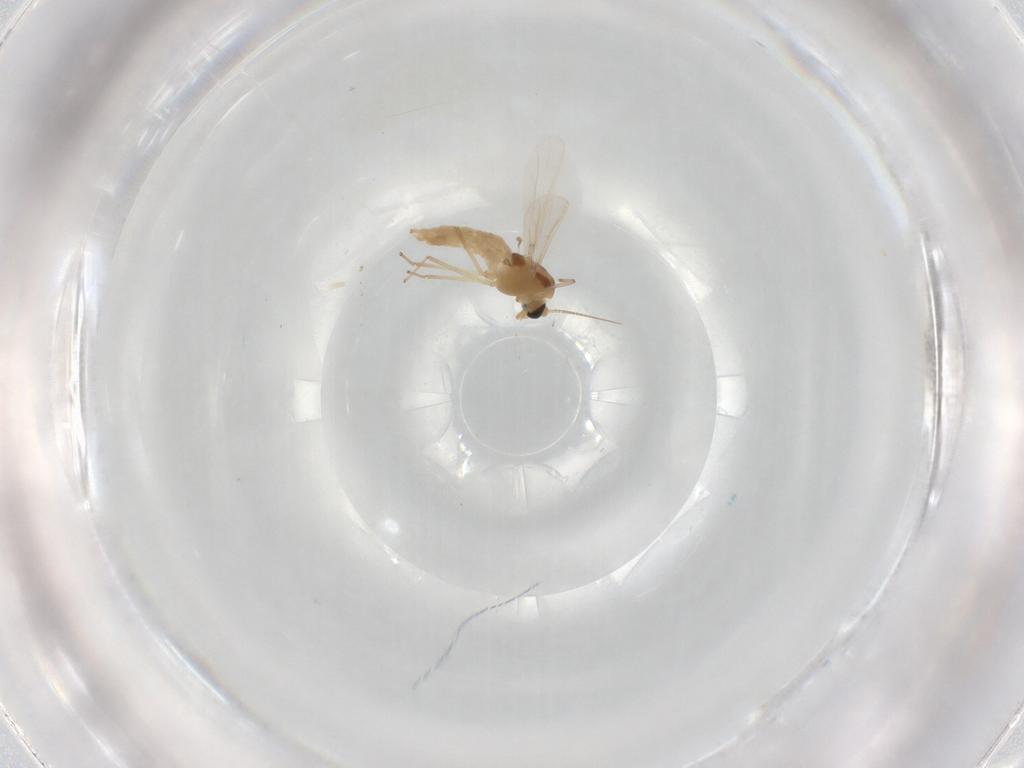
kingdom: Animalia
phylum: Arthropoda
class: Insecta
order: Diptera
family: Chironomidae
